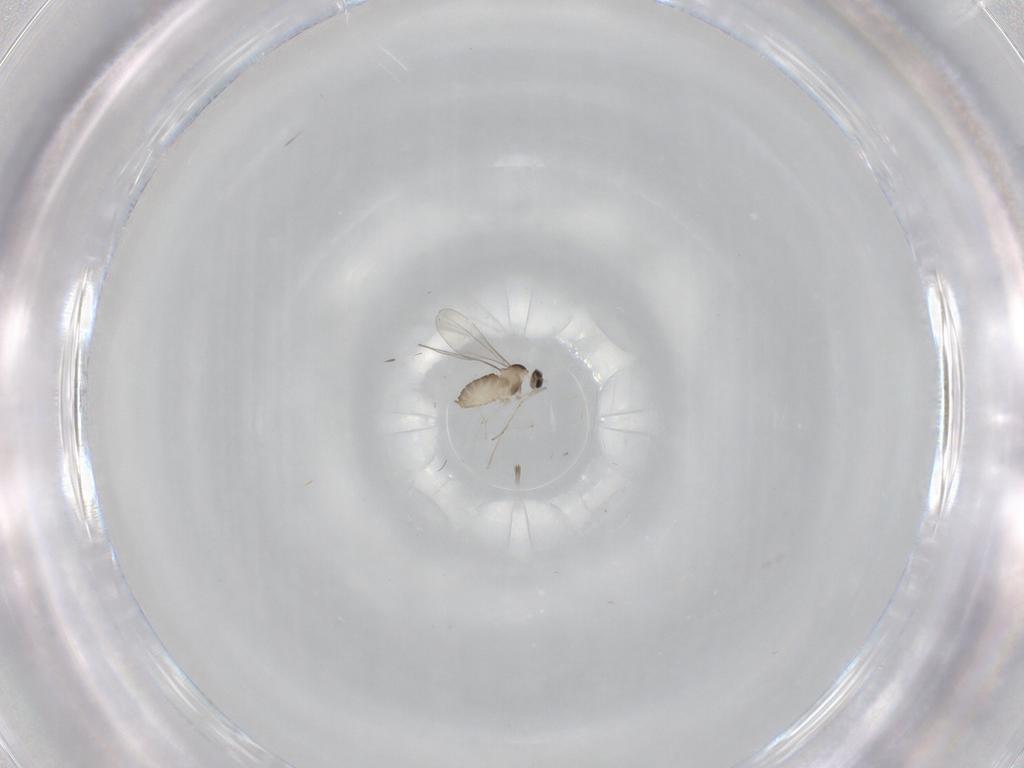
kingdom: Animalia
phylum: Arthropoda
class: Insecta
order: Diptera
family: Cecidomyiidae
